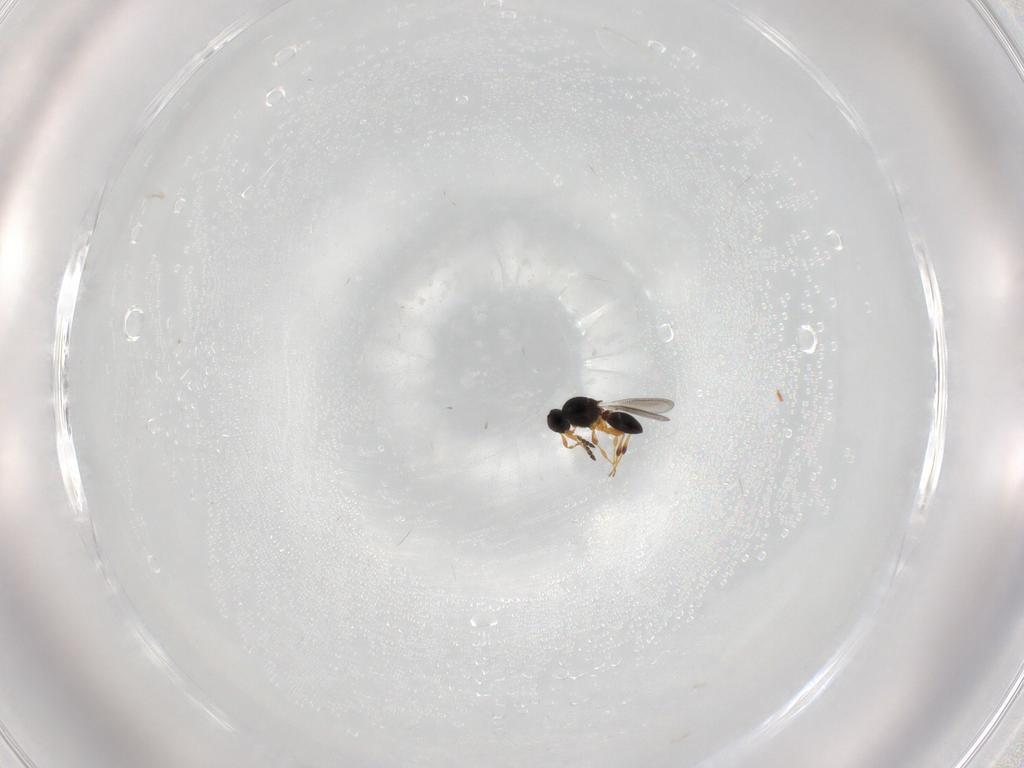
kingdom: Animalia
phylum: Arthropoda
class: Insecta
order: Hymenoptera
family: Platygastridae
